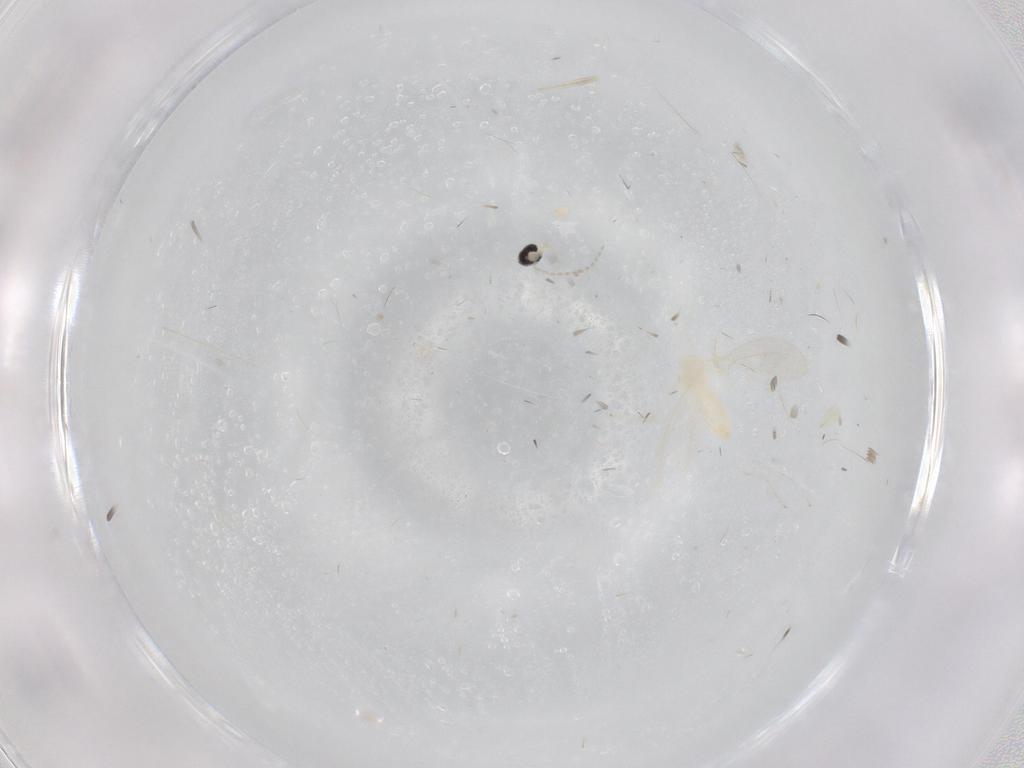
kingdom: Animalia
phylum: Arthropoda
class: Insecta
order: Diptera
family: Cecidomyiidae
